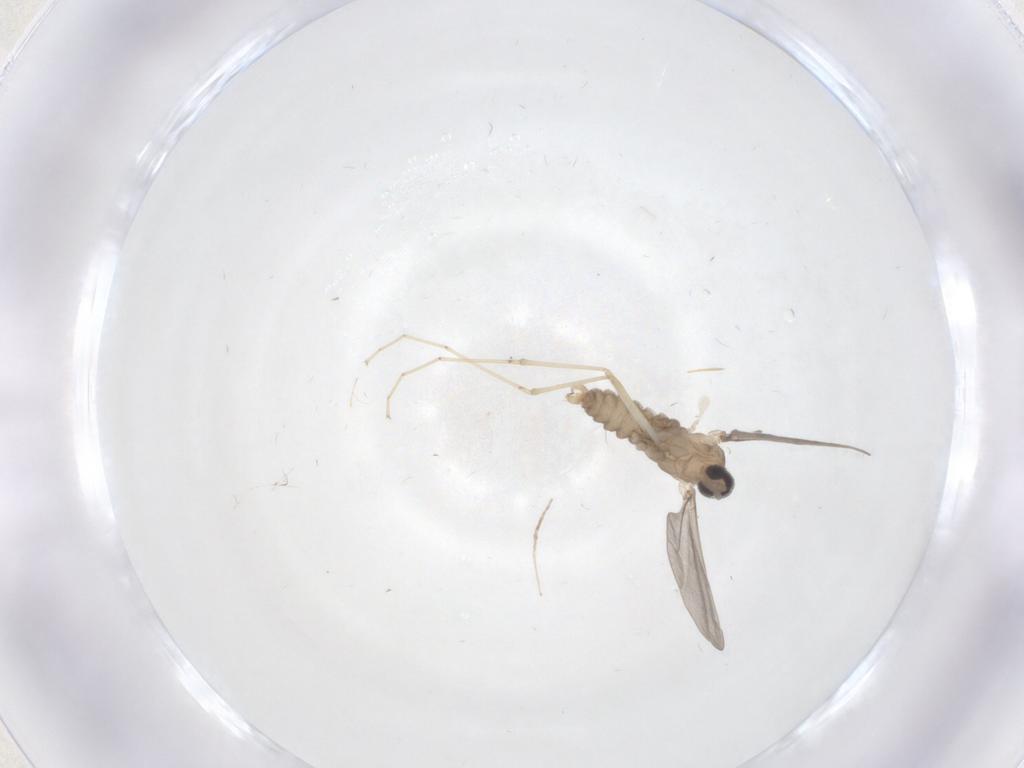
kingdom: Animalia
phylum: Arthropoda
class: Insecta
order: Diptera
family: Cecidomyiidae
